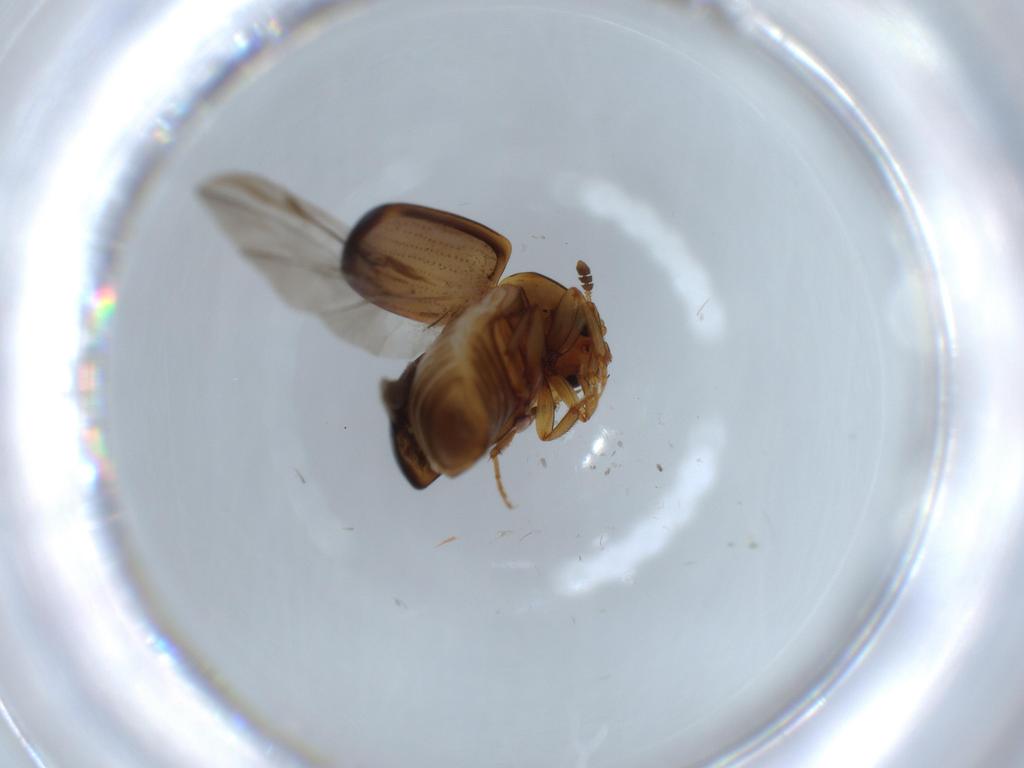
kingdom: Animalia
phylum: Arthropoda
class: Insecta
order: Coleoptera
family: Nitidulidae
